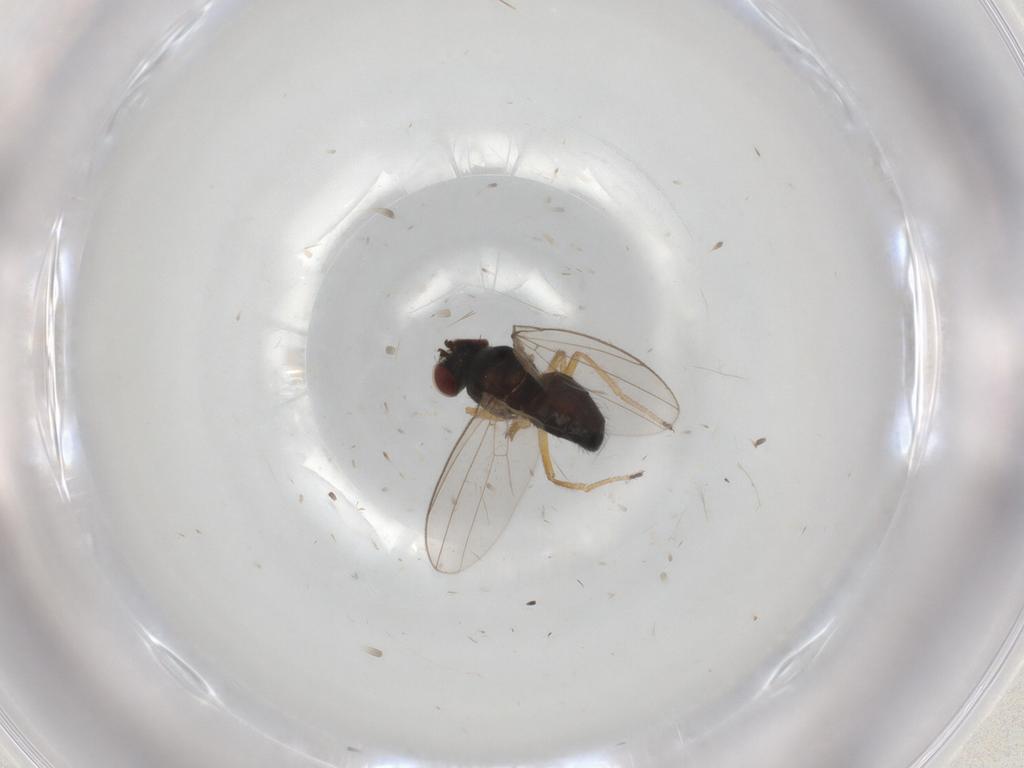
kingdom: Animalia
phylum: Arthropoda
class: Insecta
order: Diptera
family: Ephydridae
